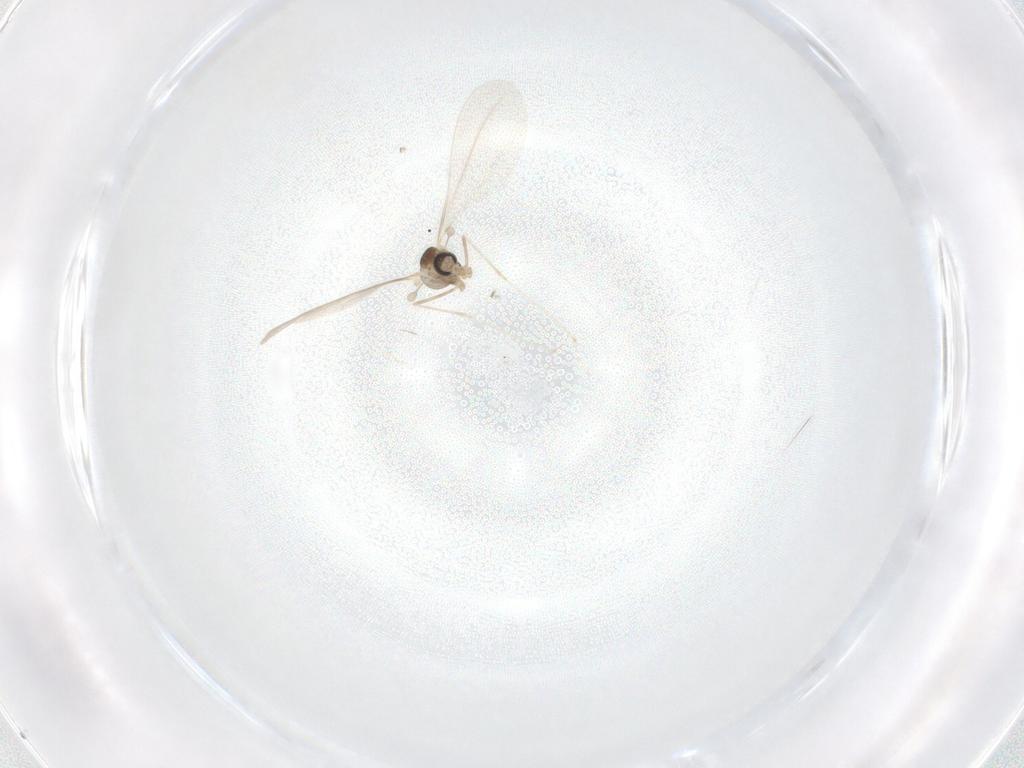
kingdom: Animalia
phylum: Arthropoda
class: Insecta
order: Diptera
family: Cecidomyiidae
